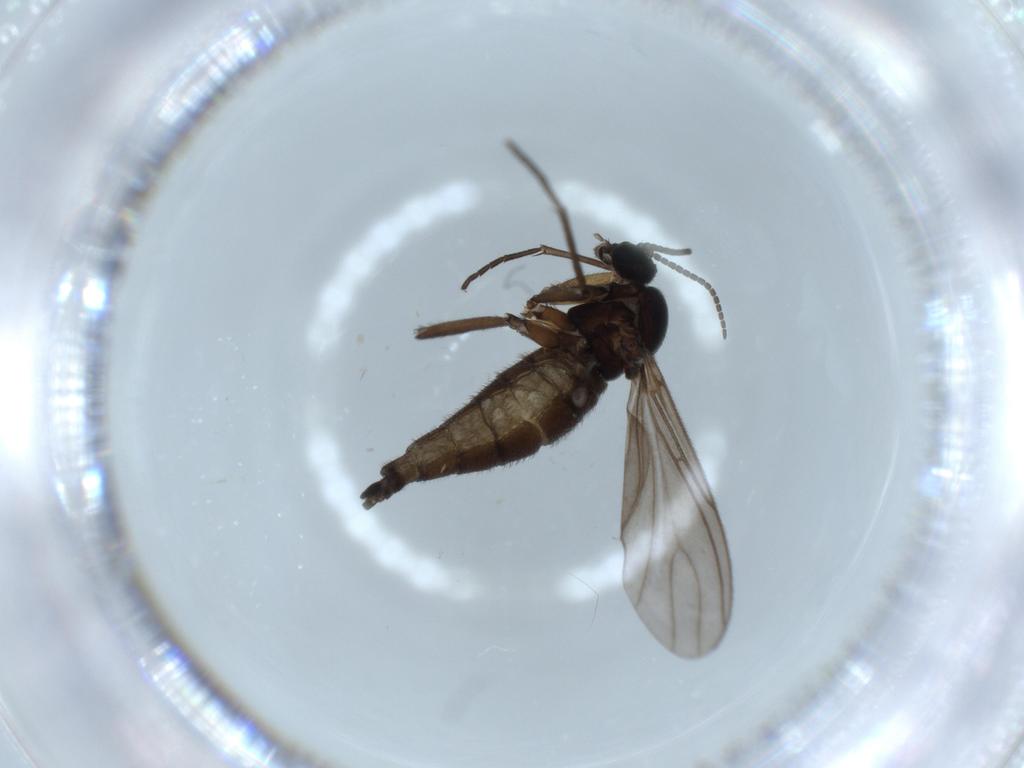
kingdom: Animalia
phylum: Arthropoda
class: Insecta
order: Diptera
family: Sciaridae
